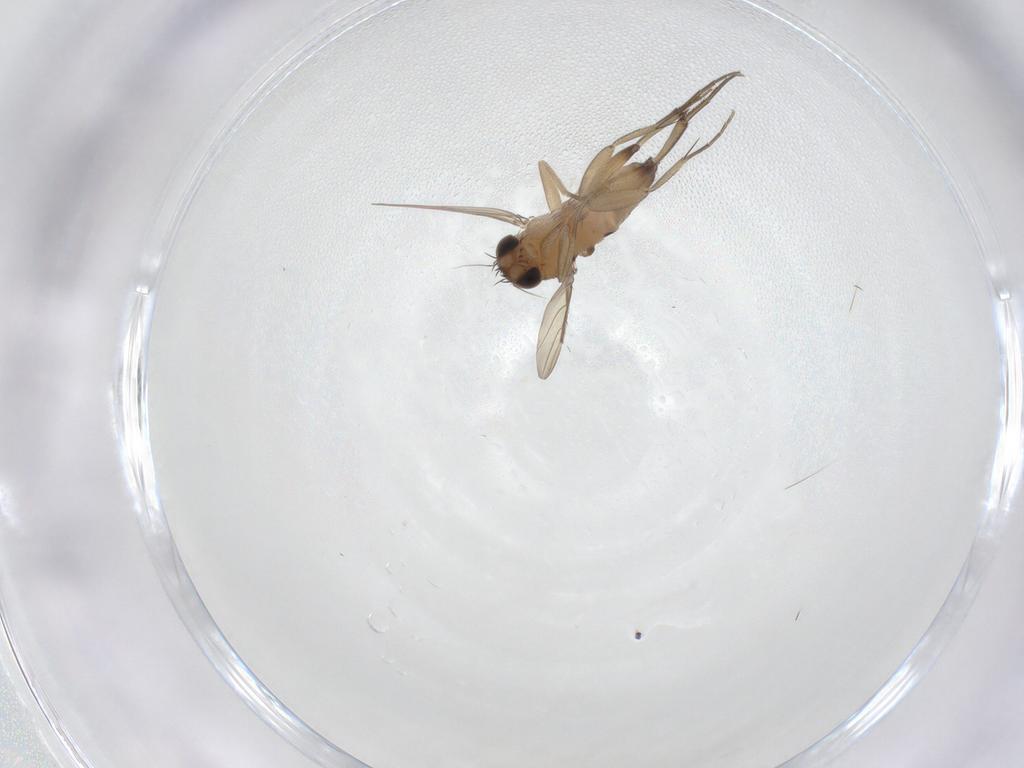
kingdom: Animalia
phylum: Arthropoda
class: Insecta
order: Diptera
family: Phoridae
